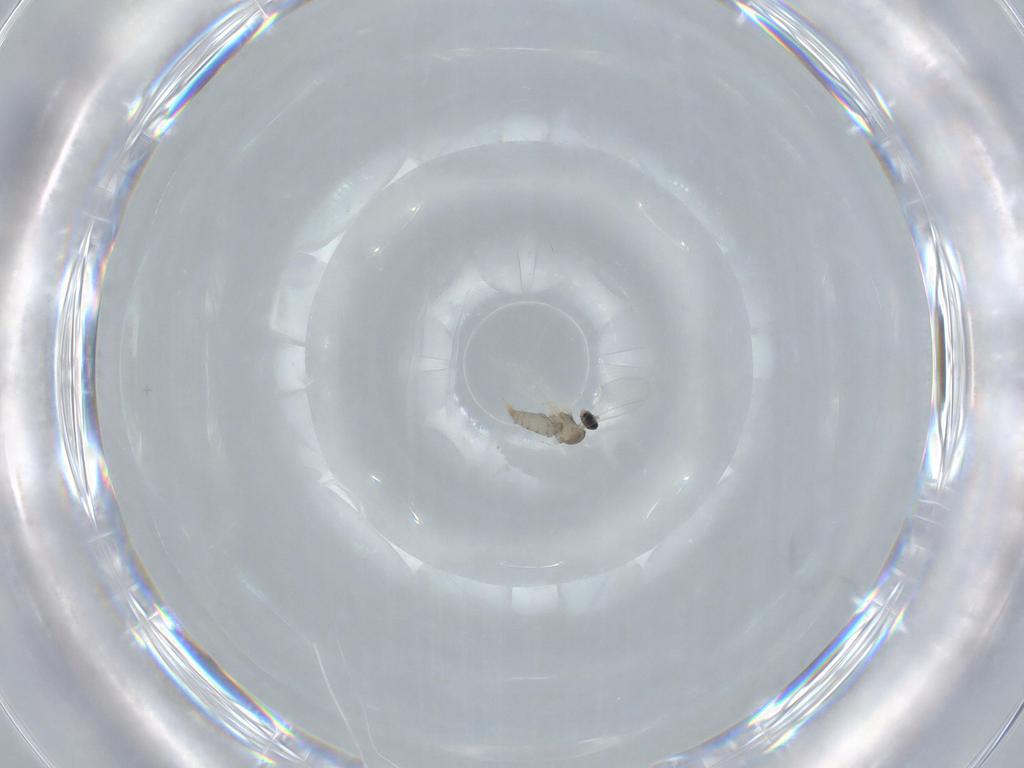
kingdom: Animalia
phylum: Arthropoda
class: Insecta
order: Diptera
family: Cecidomyiidae
